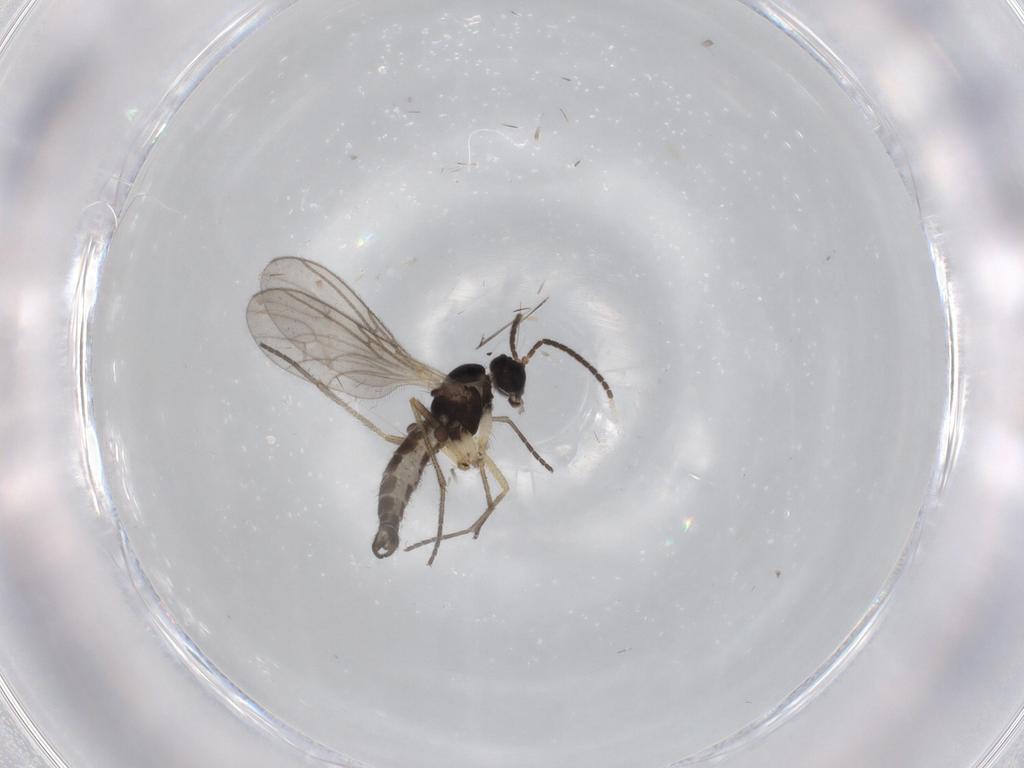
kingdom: Animalia
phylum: Arthropoda
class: Insecta
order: Diptera
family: Sciaridae
